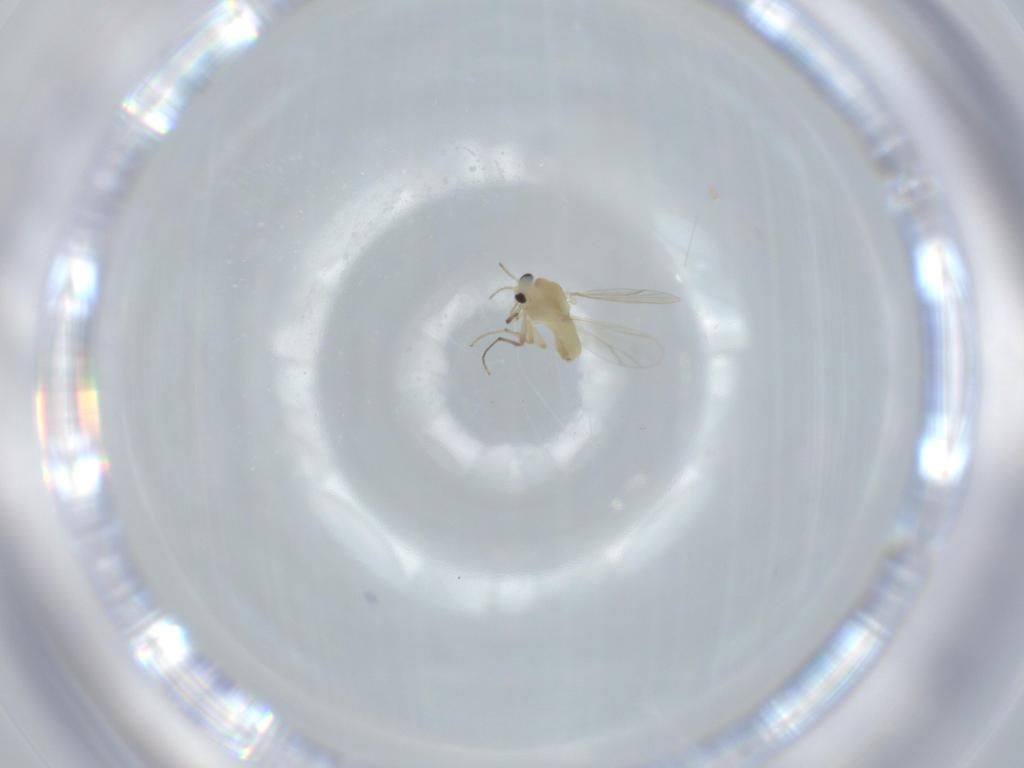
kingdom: Animalia
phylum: Arthropoda
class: Insecta
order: Diptera
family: Chironomidae
